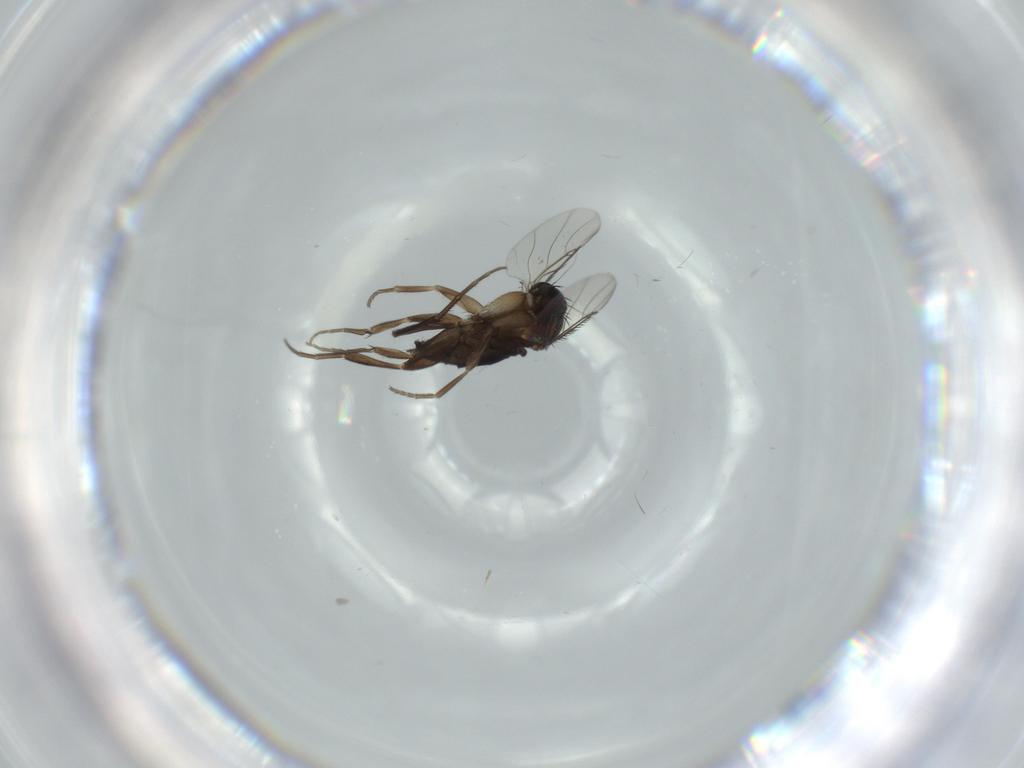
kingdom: Animalia
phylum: Arthropoda
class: Insecta
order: Diptera
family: Phoridae
